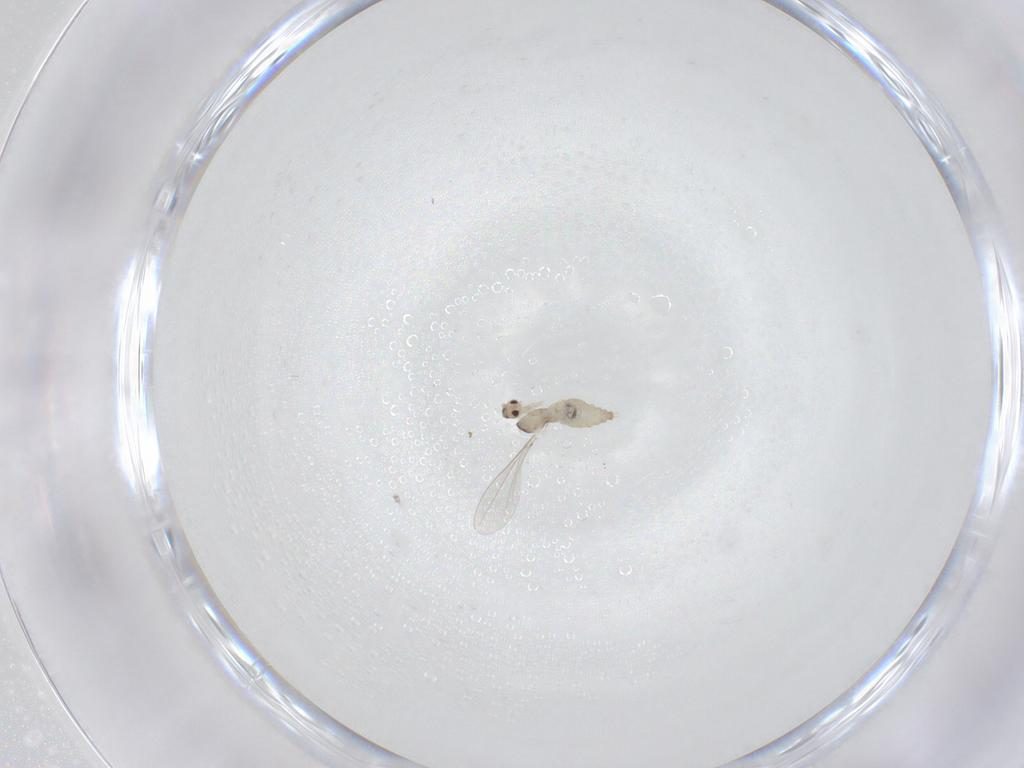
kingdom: Animalia
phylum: Arthropoda
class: Insecta
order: Diptera
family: Cecidomyiidae
